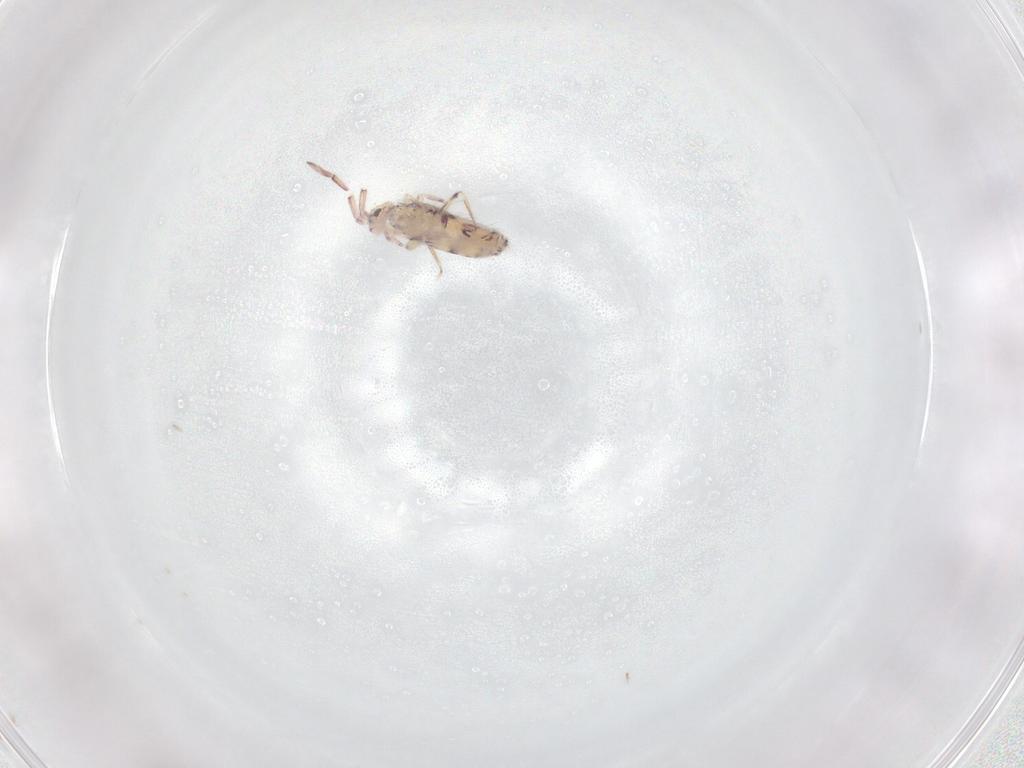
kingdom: Animalia
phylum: Arthropoda
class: Collembola
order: Entomobryomorpha
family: Entomobryidae
